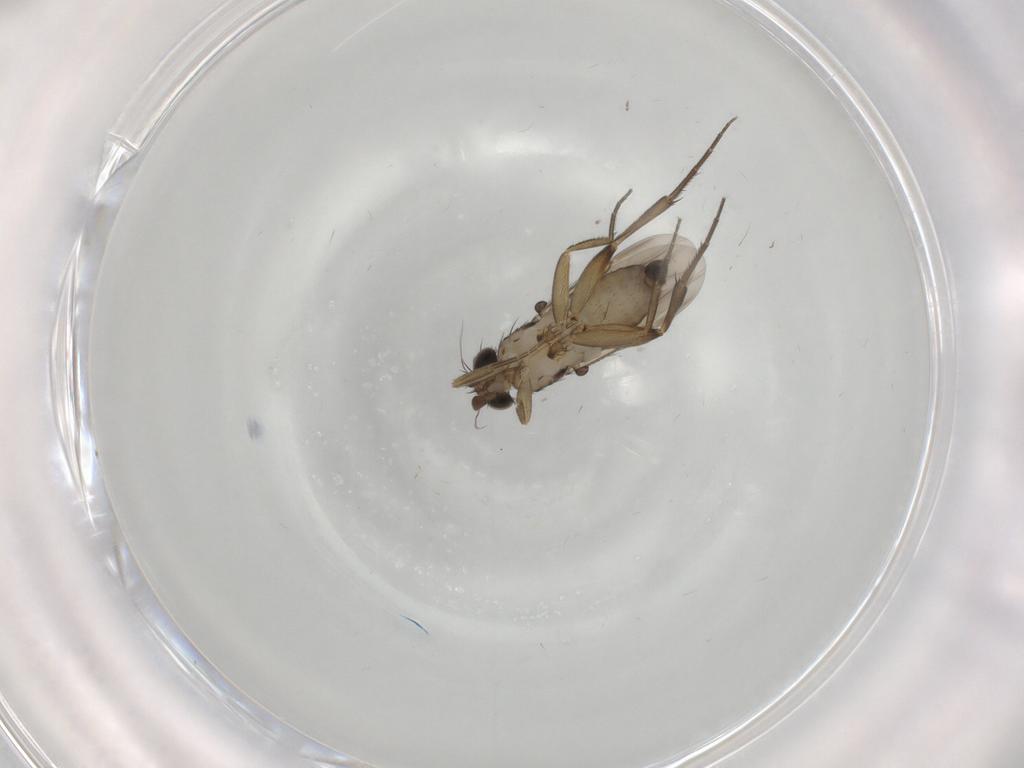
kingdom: Animalia
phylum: Arthropoda
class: Insecta
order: Diptera
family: Phoridae
